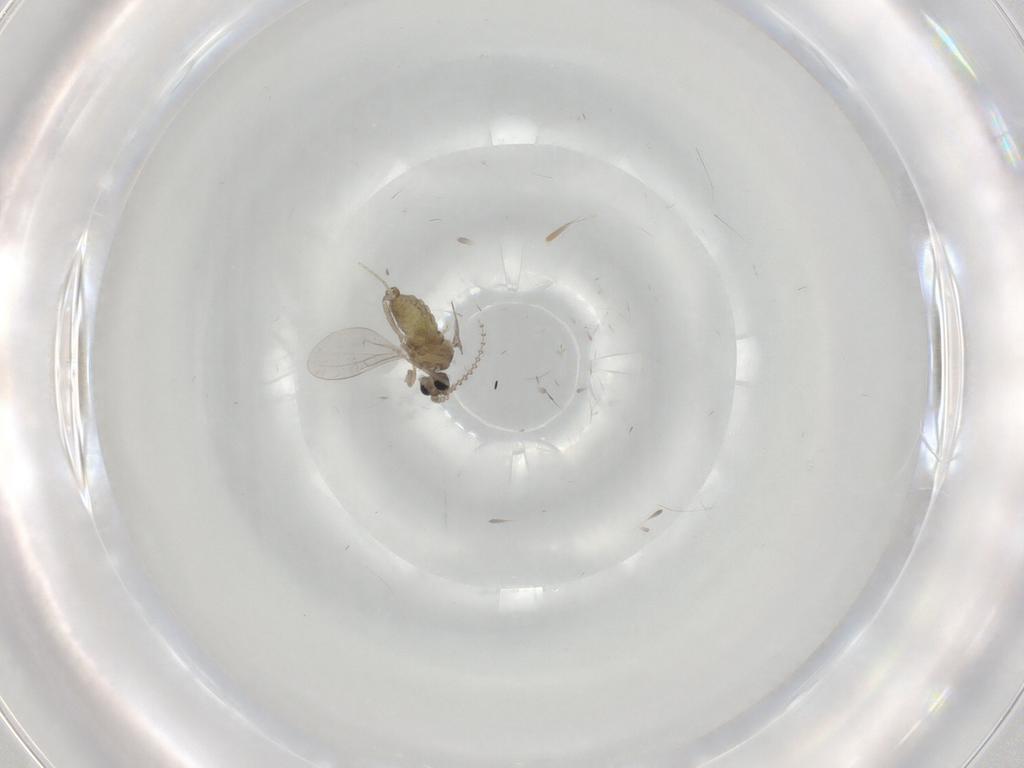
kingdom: Animalia
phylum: Arthropoda
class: Insecta
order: Diptera
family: Cecidomyiidae
